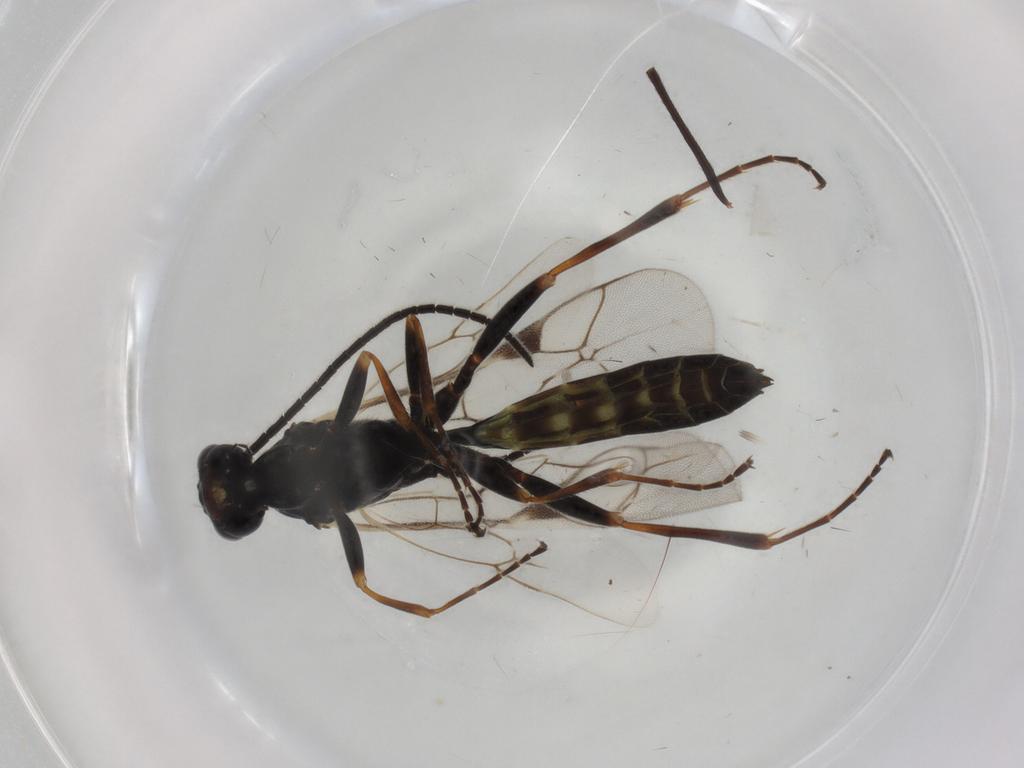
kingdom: Animalia
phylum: Arthropoda
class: Insecta
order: Hymenoptera
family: Ichneumonidae
